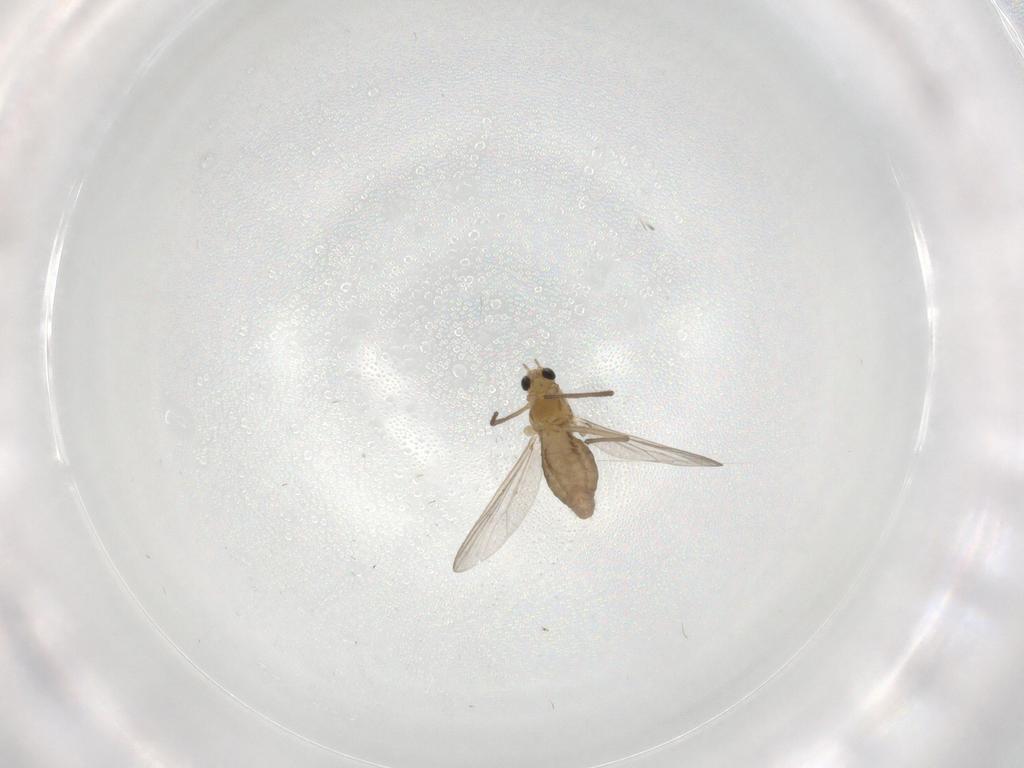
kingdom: Animalia
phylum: Arthropoda
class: Insecta
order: Diptera
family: Chironomidae
